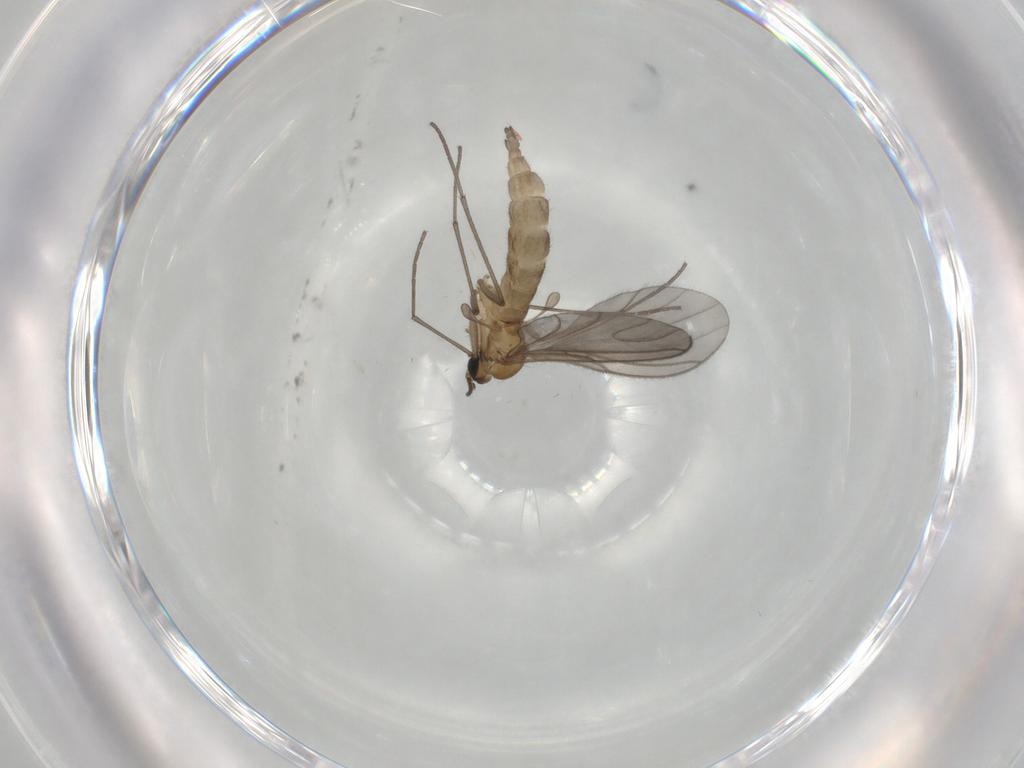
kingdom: Animalia
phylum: Arthropoda
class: Insecta
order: Diptera
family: Sciaridae
